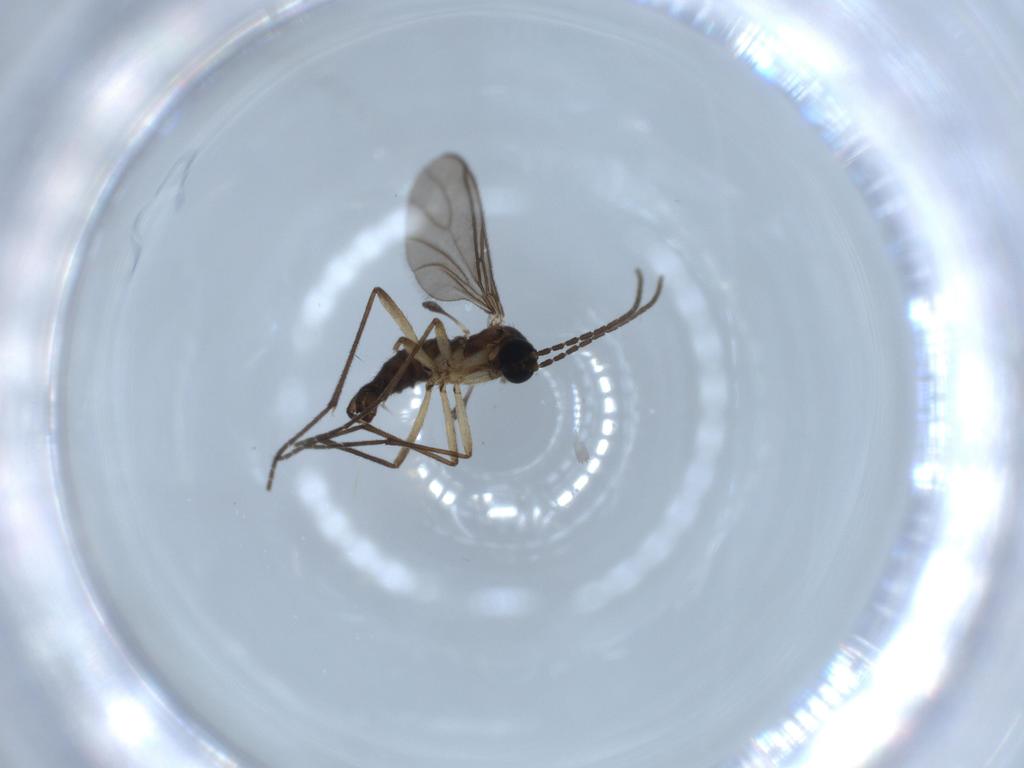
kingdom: Animalia
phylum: Arthropoda
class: Insecta
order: Diptera
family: Sciaridae
